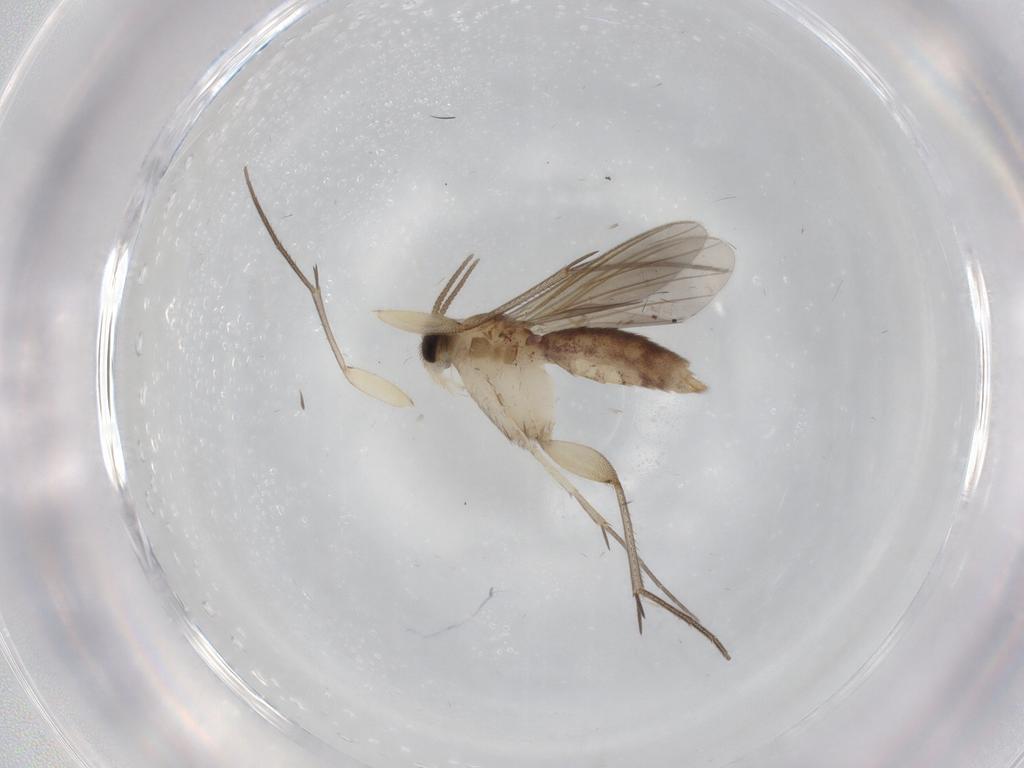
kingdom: Animalia
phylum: Arthropoda
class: Insecta
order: Diptera
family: Mycetophilidae
